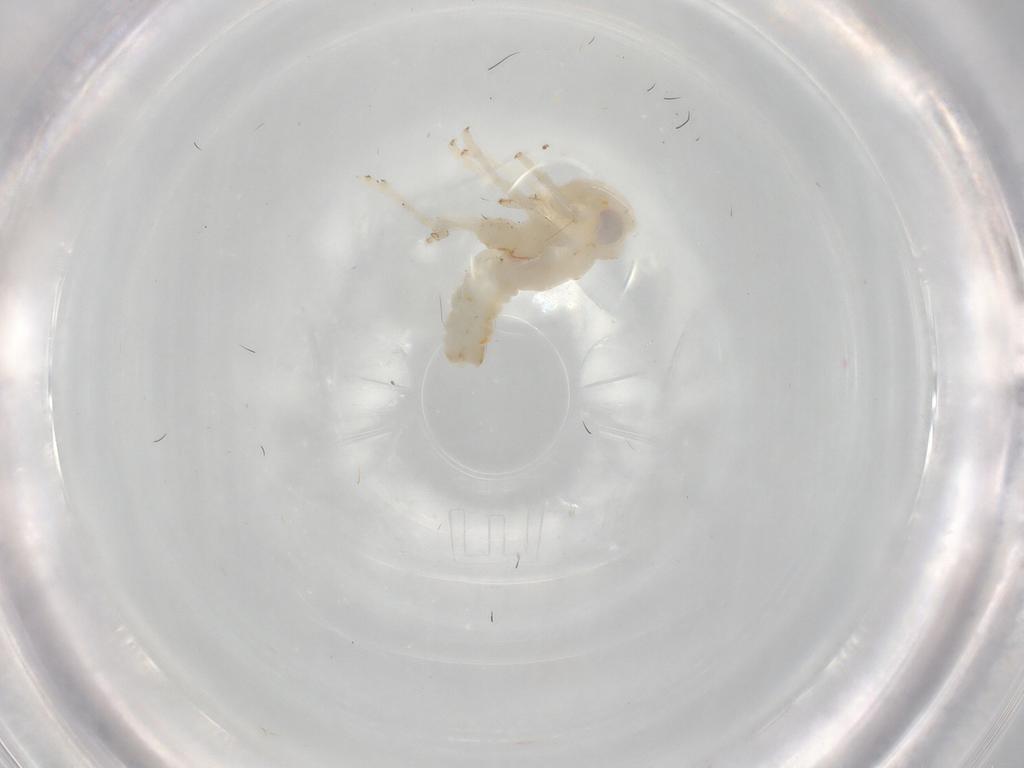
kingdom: Animalia
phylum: Arthropoda
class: Insecta
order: Hemiptera
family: Nogodinidae
